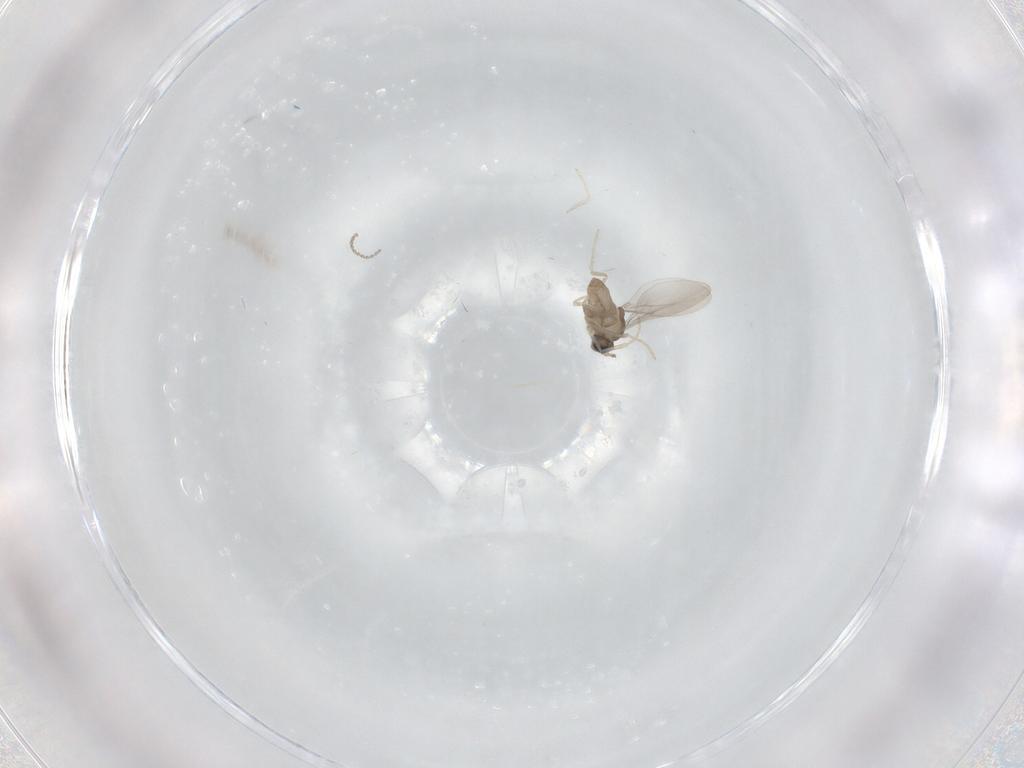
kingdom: Animalia
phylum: Arthropoda
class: Insecta
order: Diptera
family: Cecidomyiidae
